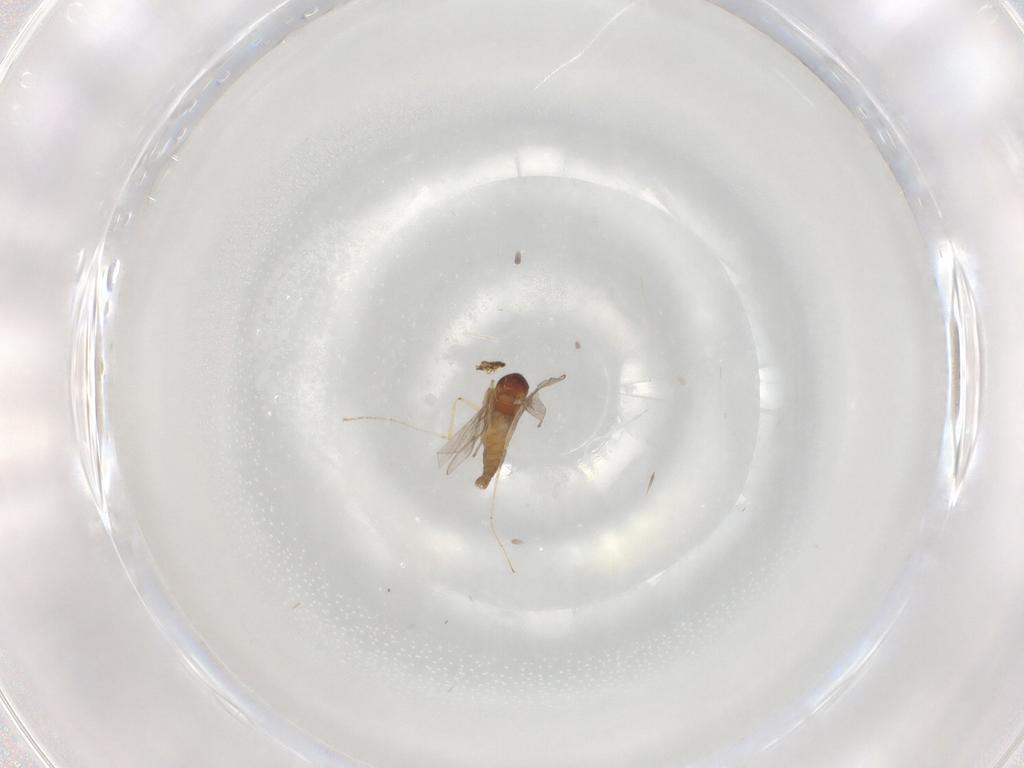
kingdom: Animalia
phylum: Arthropoda
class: Insecta
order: Diptera
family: Cecidomyiidae
